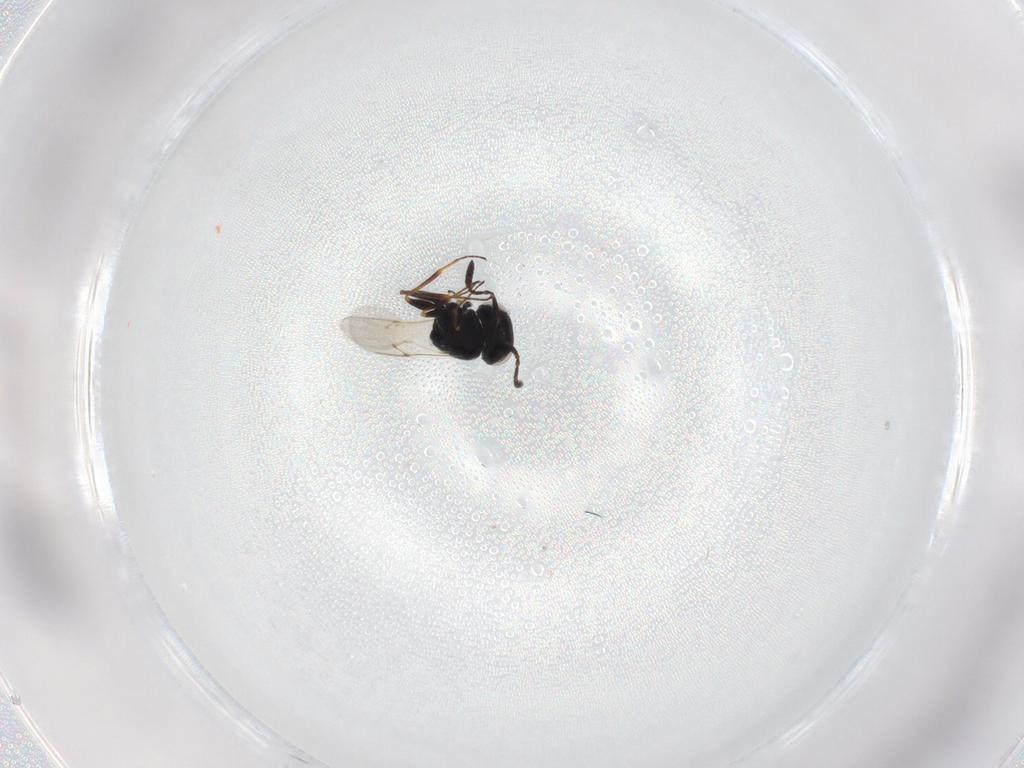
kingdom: Animalia
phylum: Arthropoda
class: Insecta
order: Hymenoptera
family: Scelionidae
